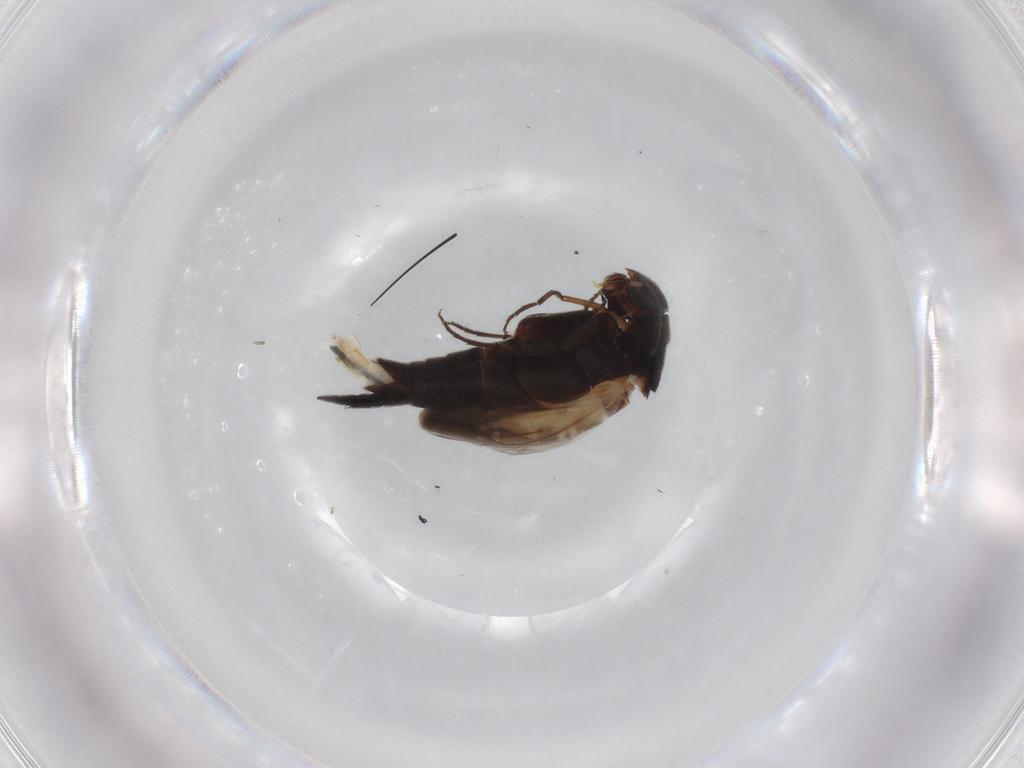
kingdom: Animalia
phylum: Arthropoda
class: Insecta
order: Coleoptera
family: Mordellidae
